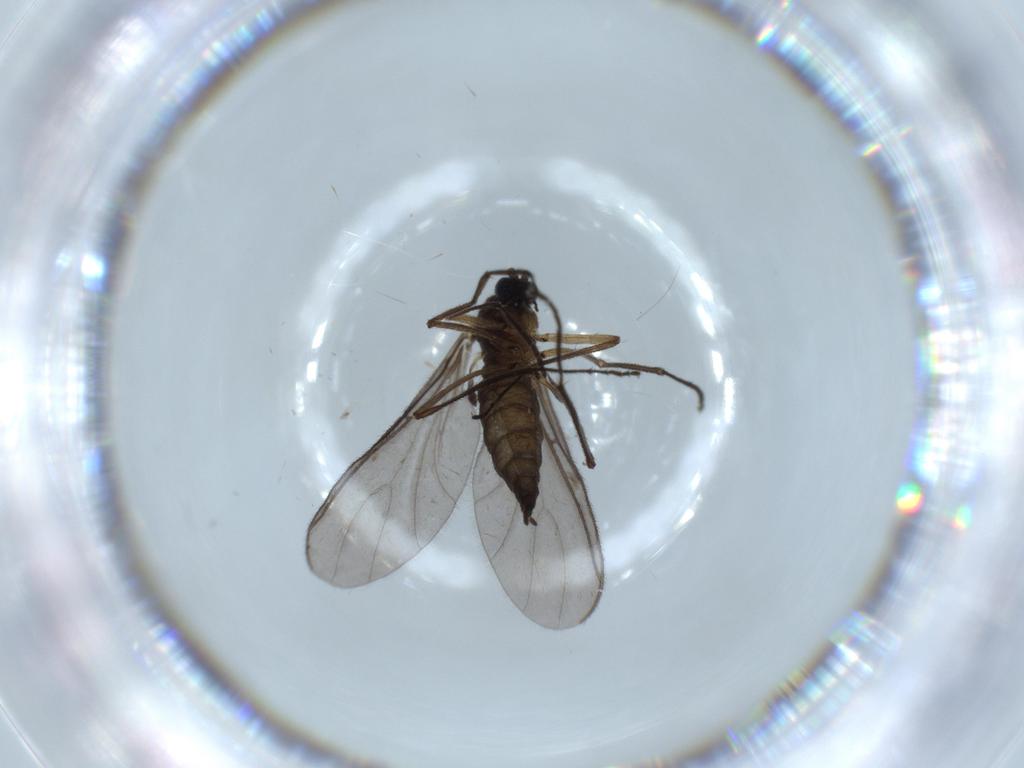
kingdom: Animalia
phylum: Arthropoda
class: Insecta
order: Diptera
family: Sciaridae
